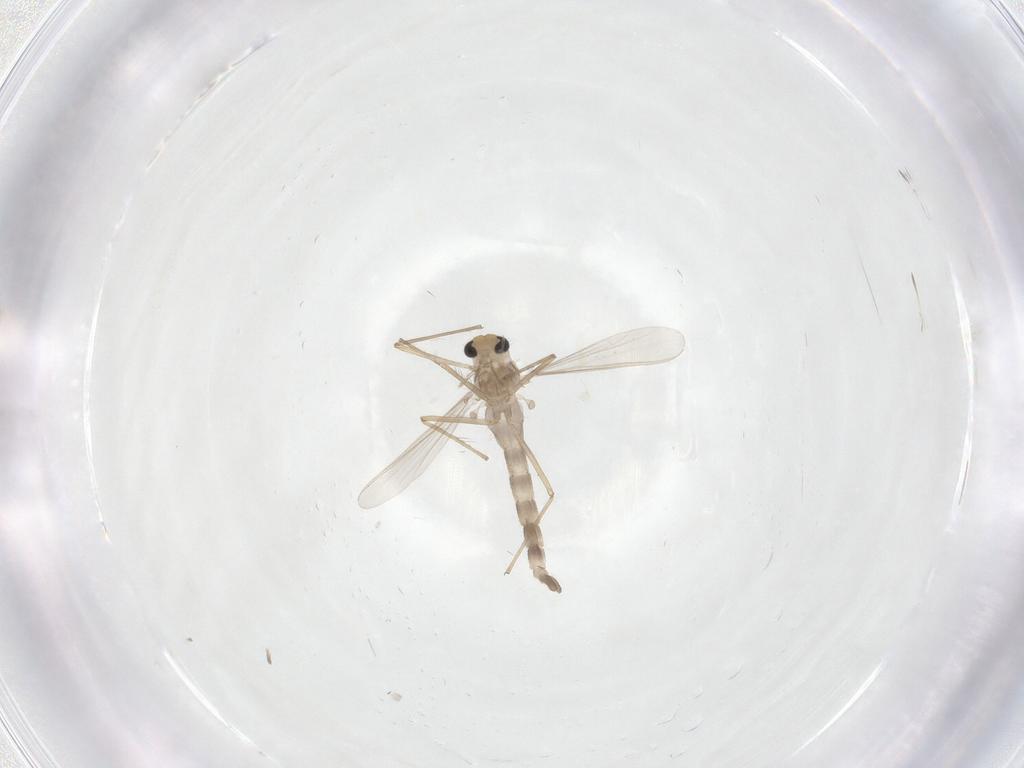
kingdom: Animalia
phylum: Arthropoda
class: Insecta
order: Diptera
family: Chironomidae
